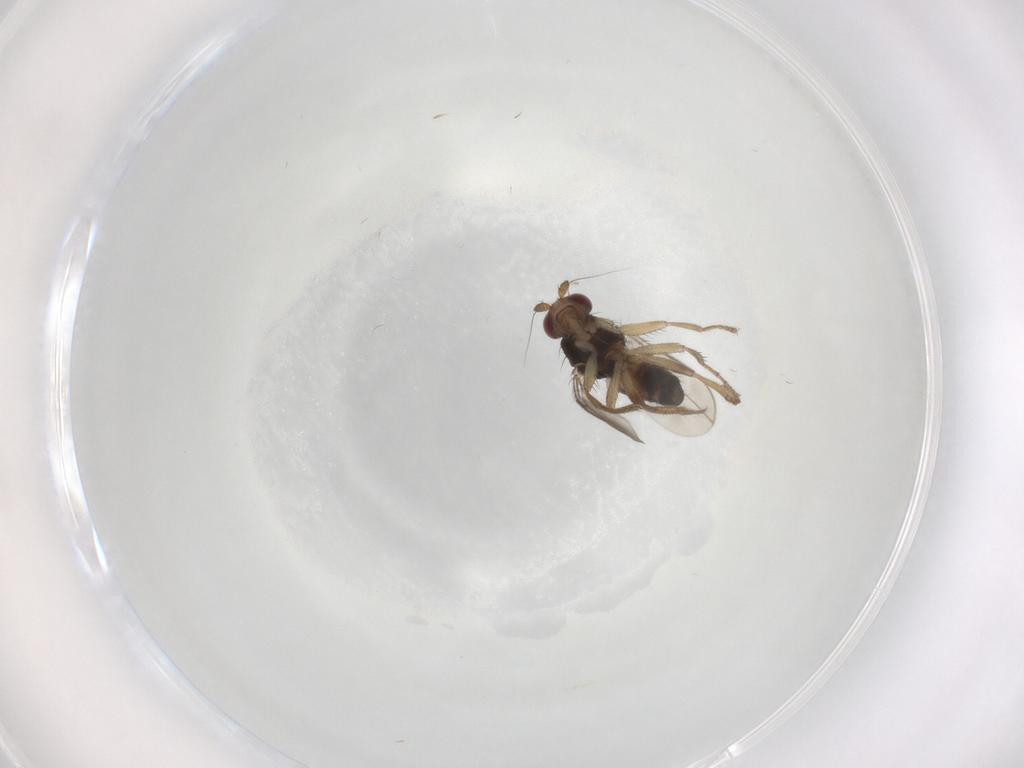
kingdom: Animalia
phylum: Arthropoda
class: Insecta
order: Diptera
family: Sphaeroceridae
